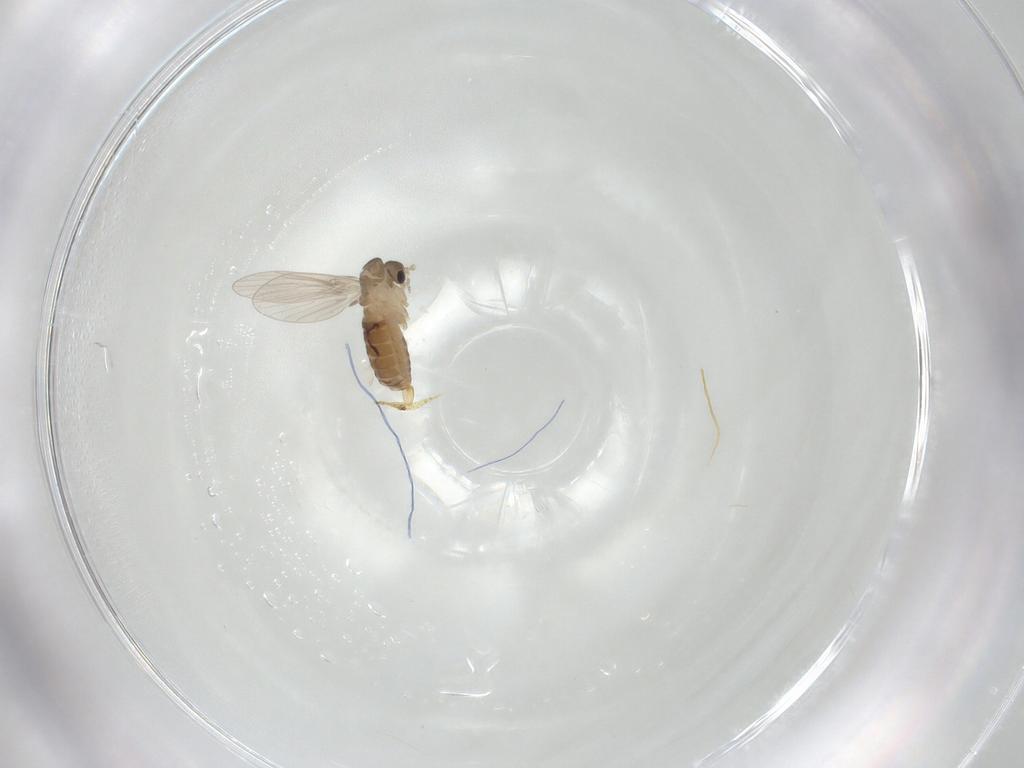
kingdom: Animalia
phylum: Arthropoda
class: Insecta
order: Diptera
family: Psychodidae
